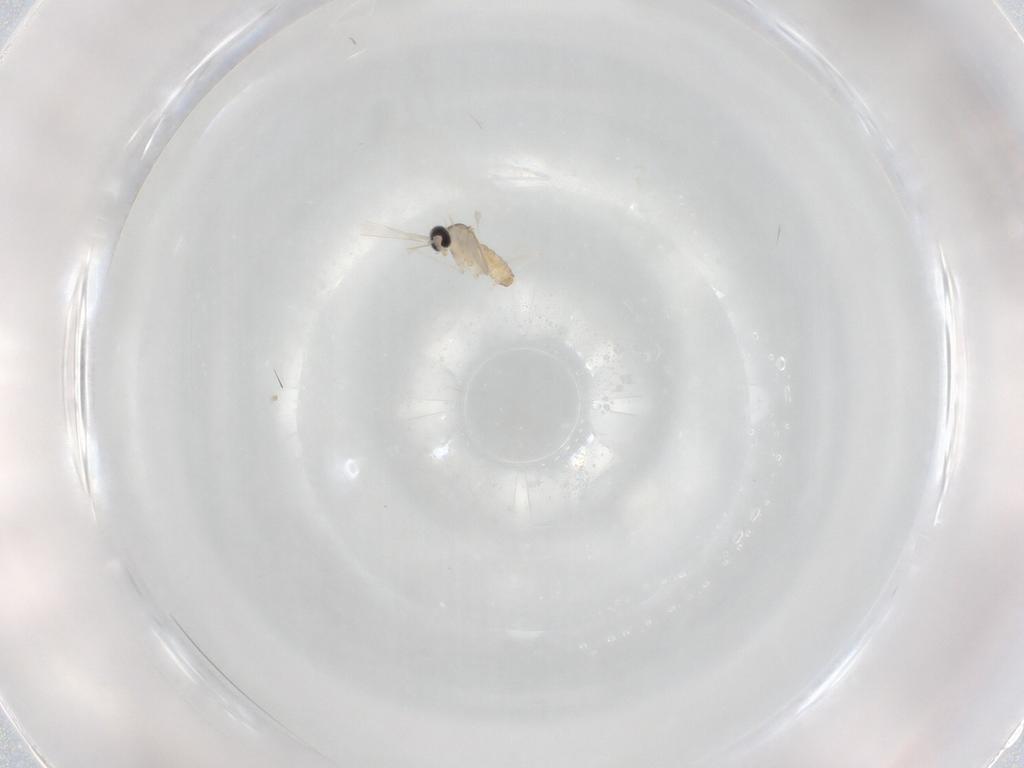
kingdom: Animalia
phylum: Arthropoda
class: Insecta
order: Diptera
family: Cecidomyiidae
